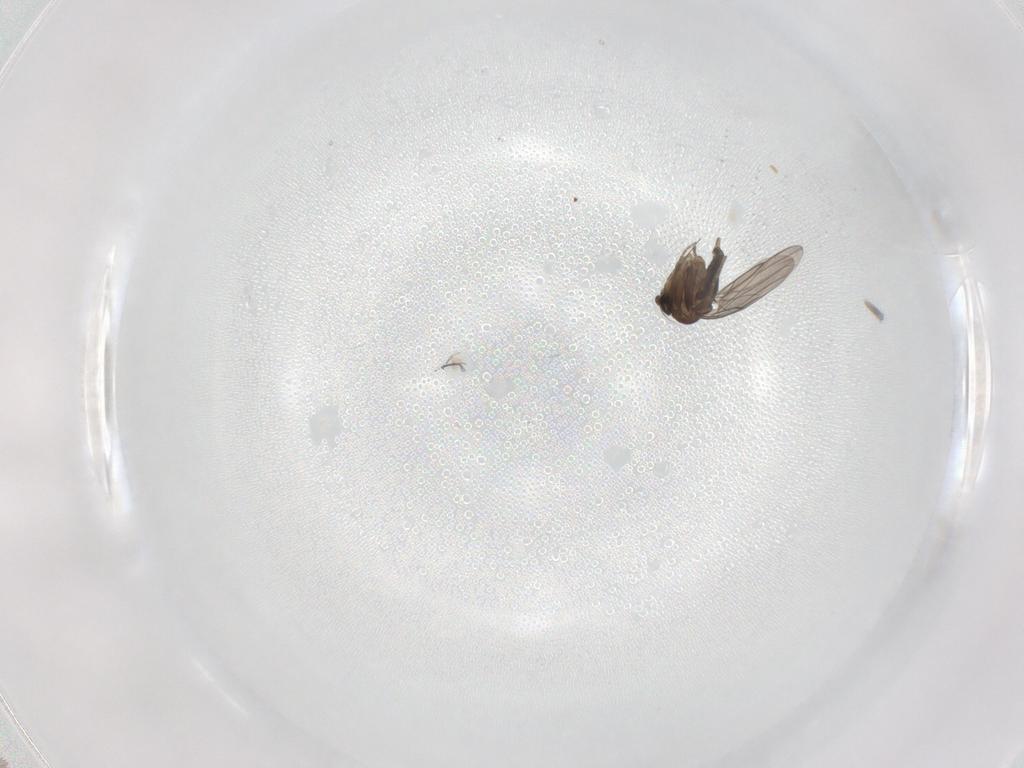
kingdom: Animalia
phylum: Arthropoda
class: Insecta
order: Diptera
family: Phoridae
